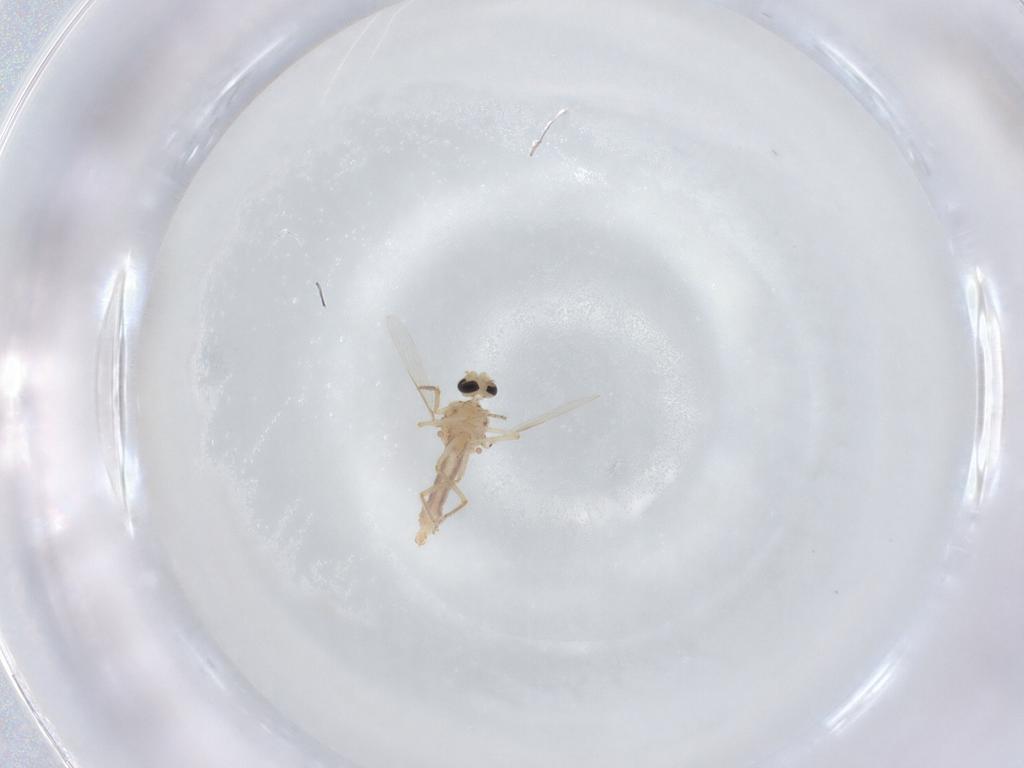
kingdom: Animalia
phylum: Arthropoda
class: Insecta
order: Diptera
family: Ceratopogonidae
